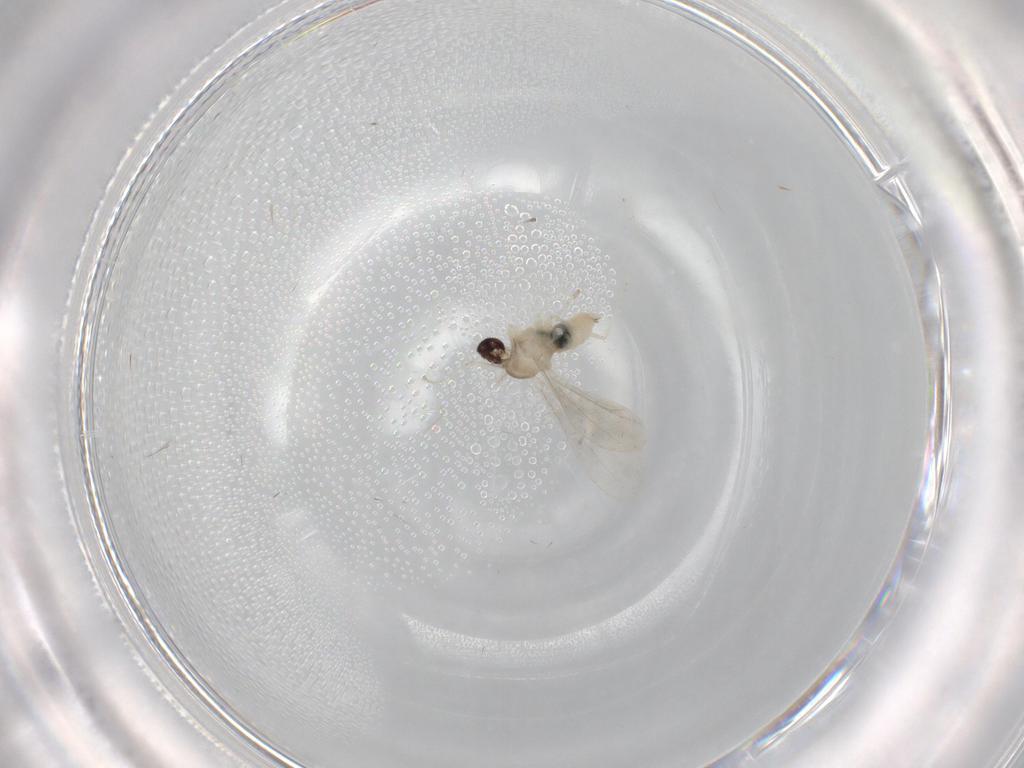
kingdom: Animalia
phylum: Arthropoda
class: Insecta
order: Diptera
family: Cecidomyiidae
